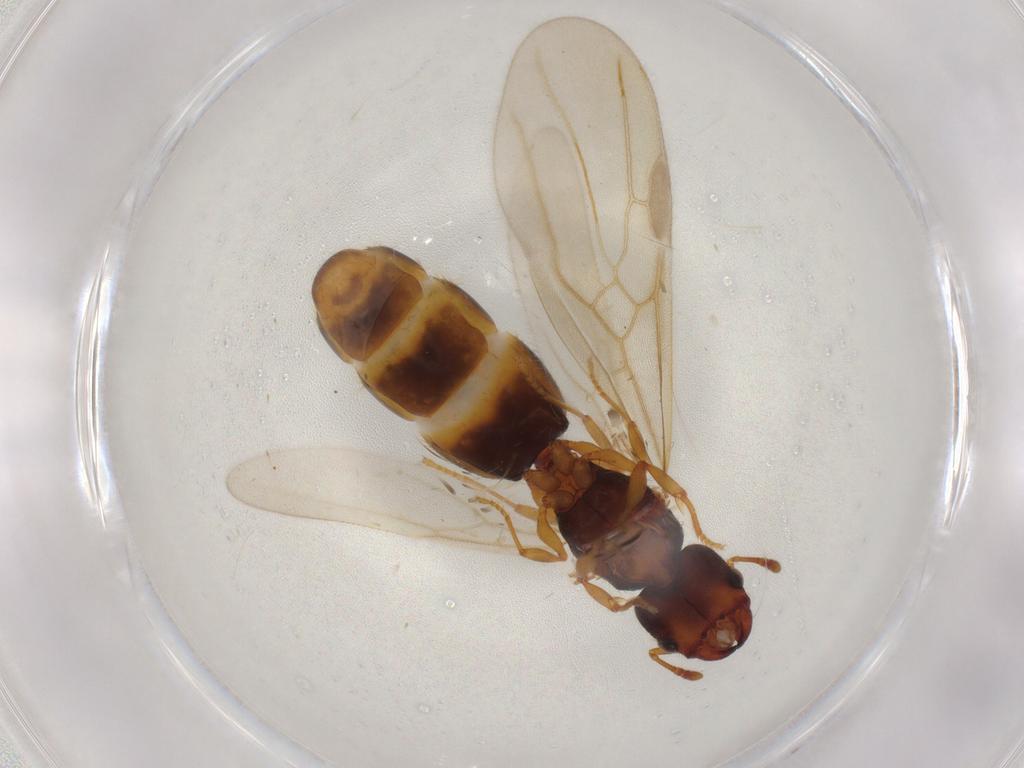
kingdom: Animalia
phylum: Arthropoda
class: Insecta
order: Hymenoptera
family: Formicidae
